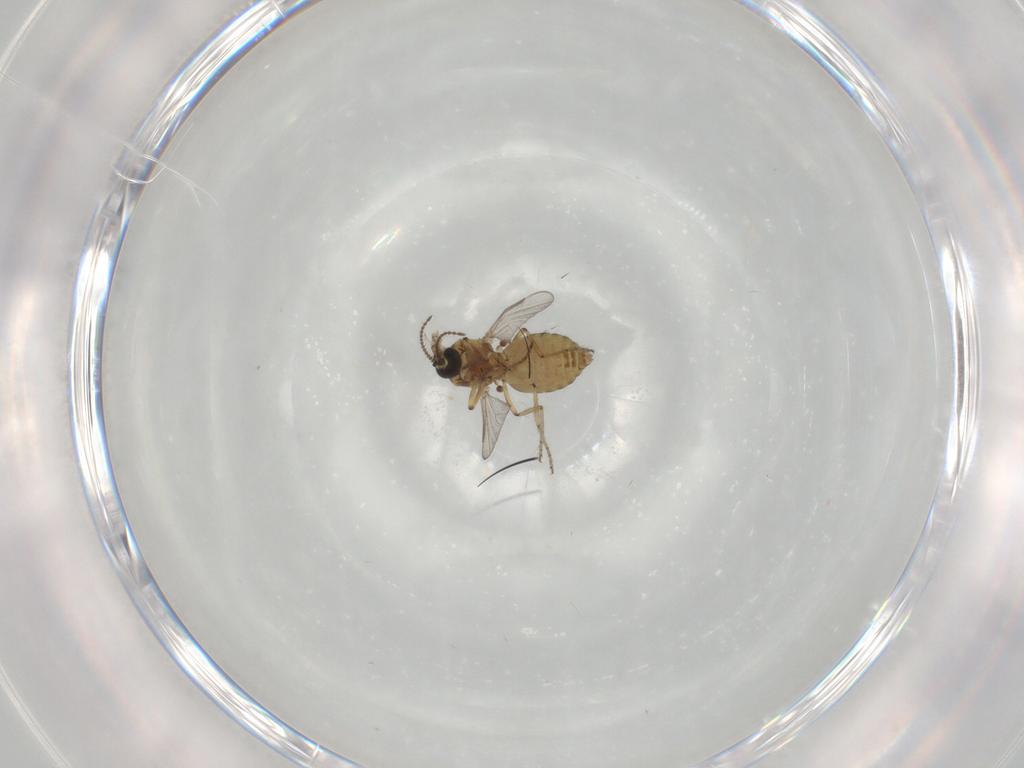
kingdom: Animalia
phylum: Arthropoda
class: Insecta
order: Diptera
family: Ceratopogonidae
